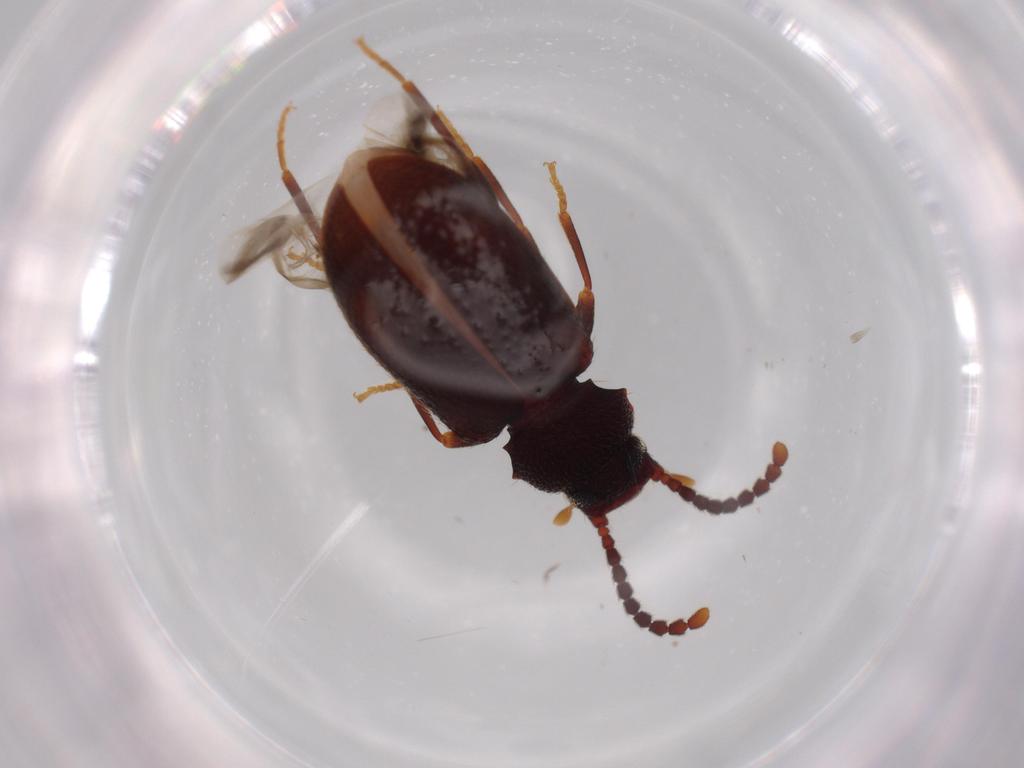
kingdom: Animalia
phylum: Arthropoda
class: Insecta
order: Coleoptera
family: Tenebrionidae
